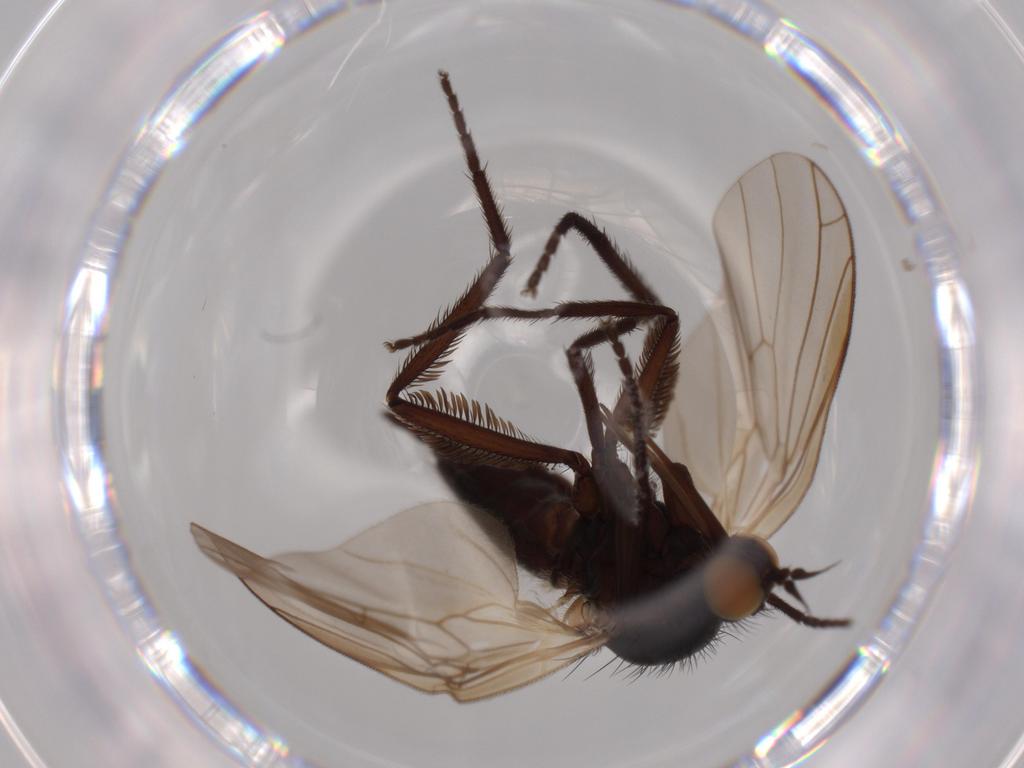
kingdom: Animalia
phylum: Arthropoda
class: Insecta
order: Diptera
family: Empididae
